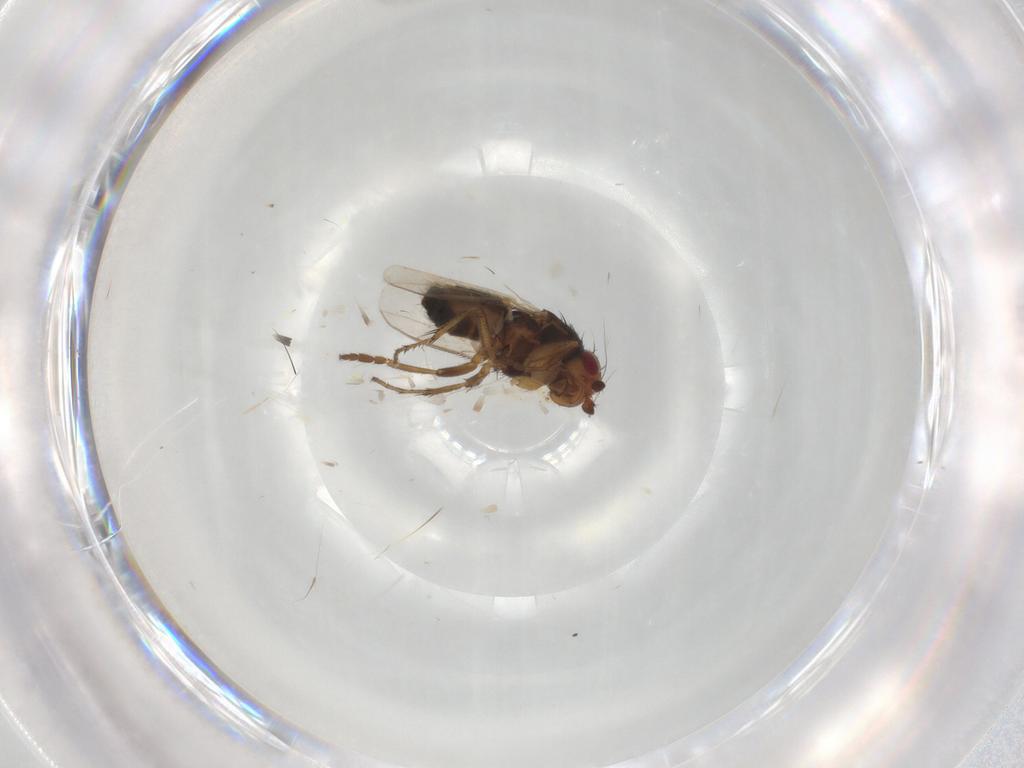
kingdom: Animalia
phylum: Arthropoda
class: Insecta
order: Diptera
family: Sphaeroceridae
